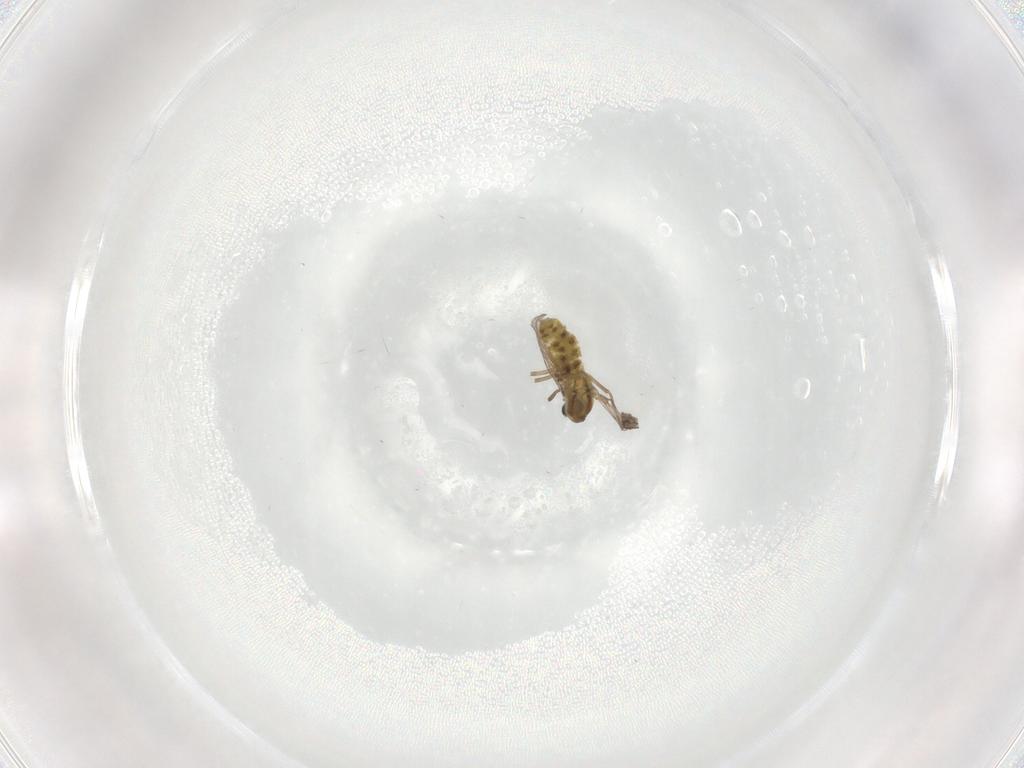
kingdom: Animalia
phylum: Arthropoda
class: Insecta
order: Diptera
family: Chironomidae
